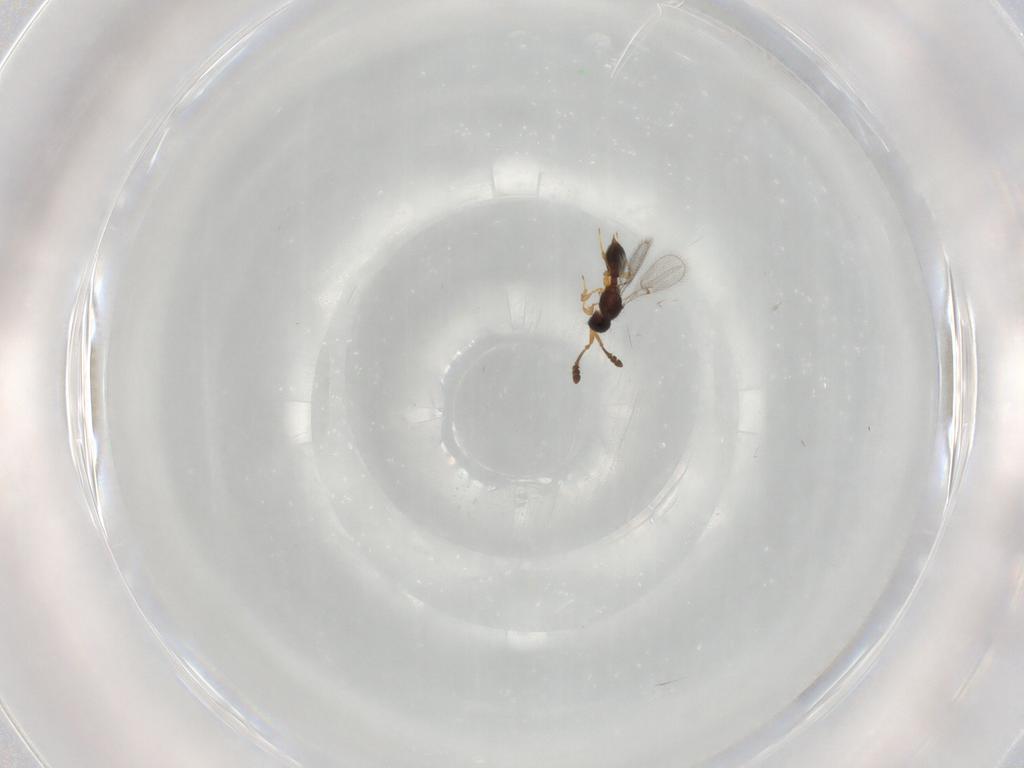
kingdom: Animalia
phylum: Arthropoda
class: Insecta
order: Hymenoptera
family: Diapriidae
